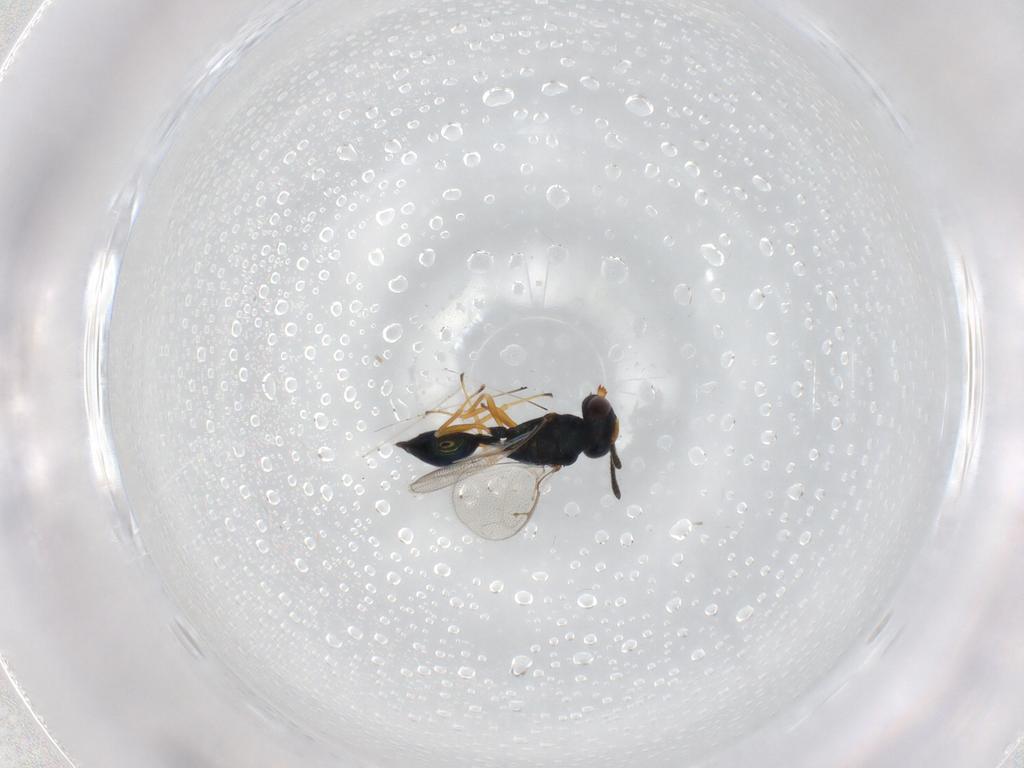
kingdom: Animalia
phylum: Arthropoda
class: Insecta
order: Hymenoptera
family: Pteromalidae
